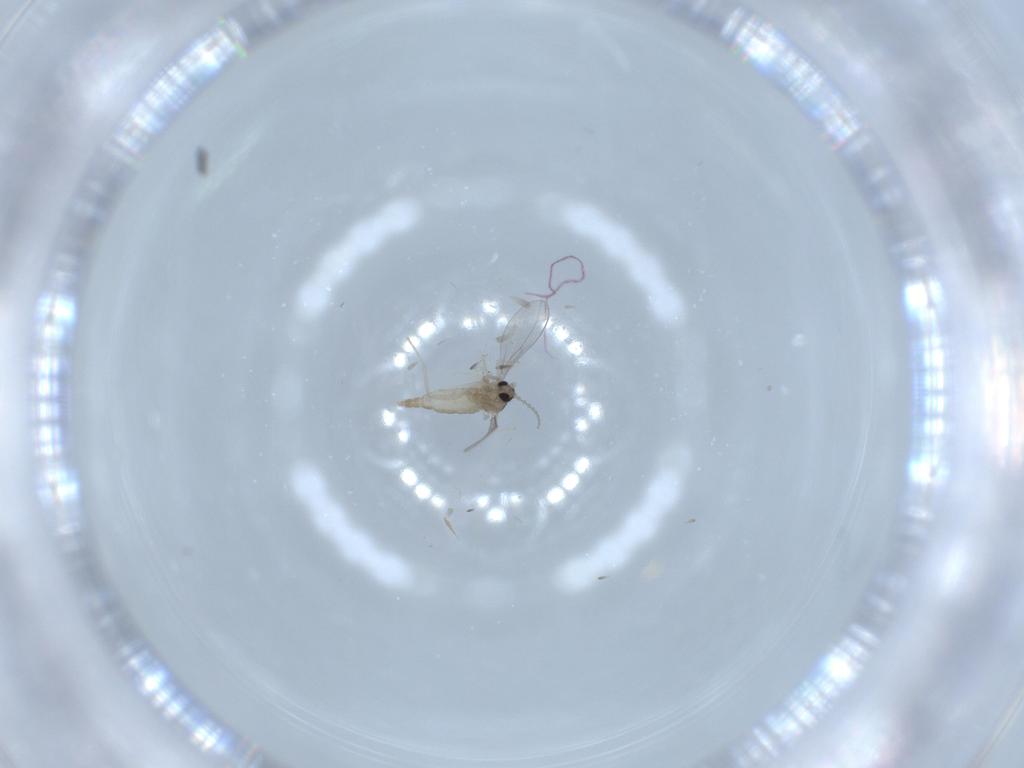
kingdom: Animalia
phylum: Arthropoda
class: Insecta
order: Diptera
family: Cecidomyiidae
